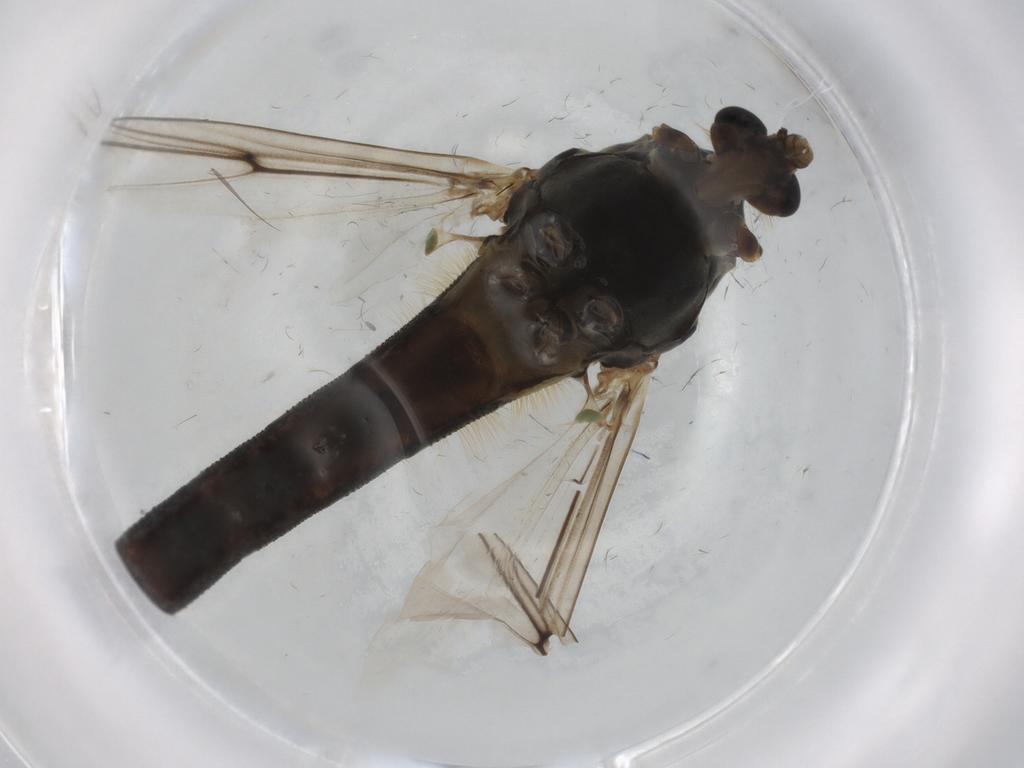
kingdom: Animalia
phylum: Arthropoda
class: Insecta
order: Diptera
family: Chironomidae
